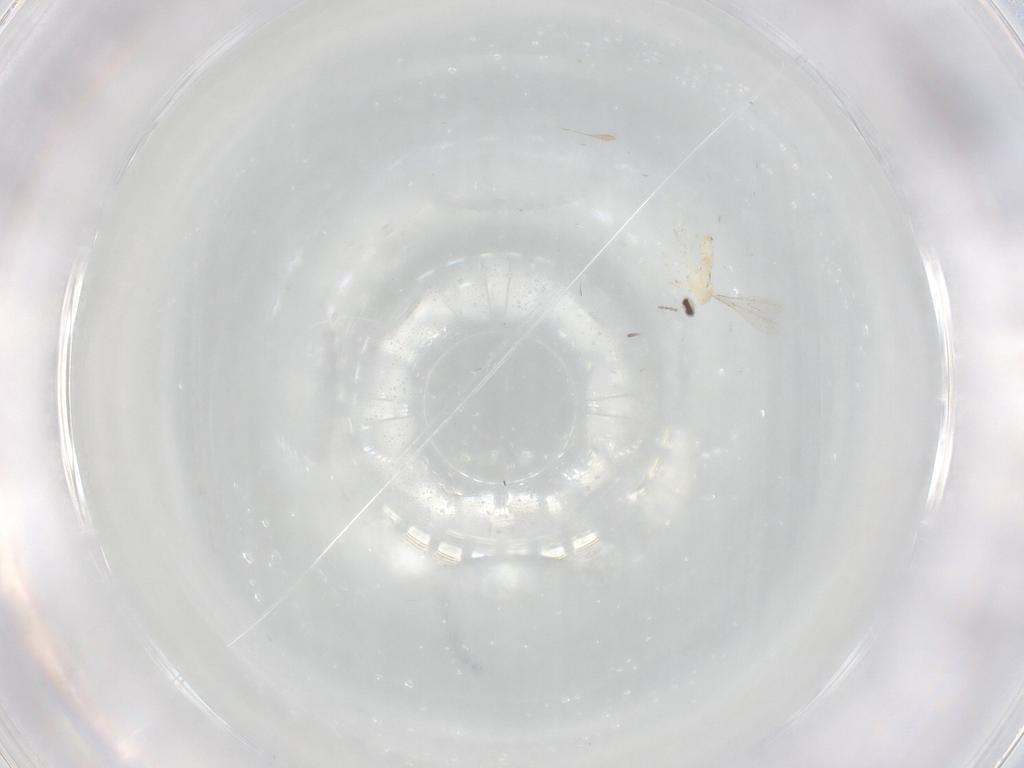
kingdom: Animalia
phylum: Arthropoda
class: Insecta
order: Diptera
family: Cecidomyiidae
